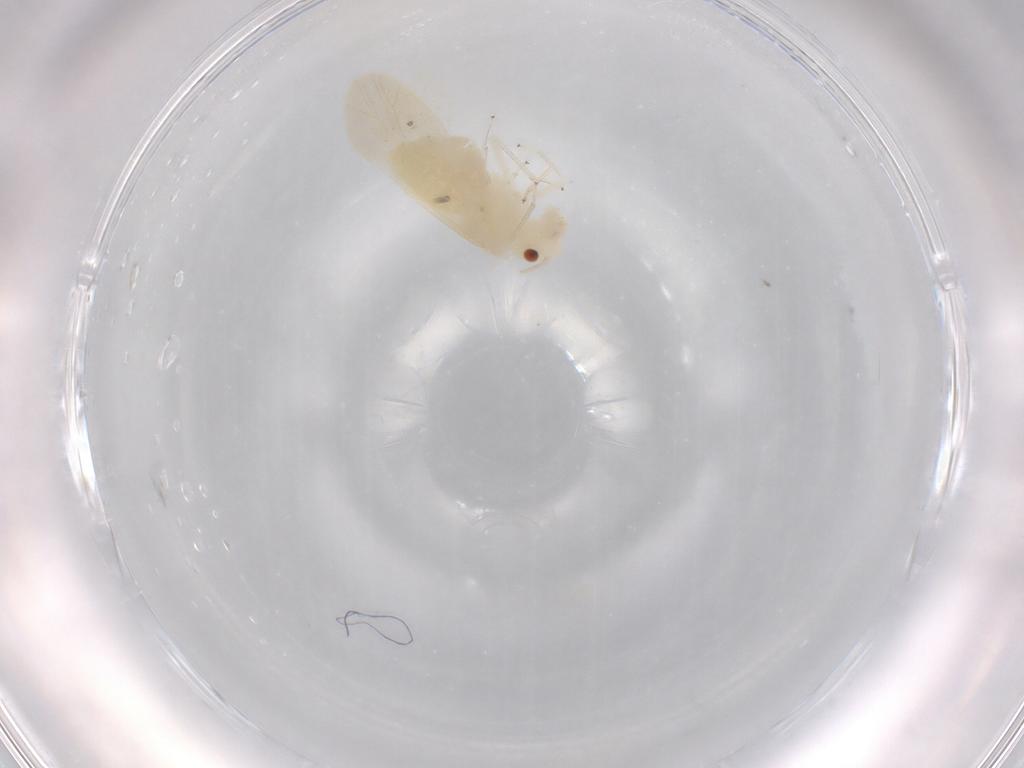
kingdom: Animalia
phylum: Arthropoda
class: Insecta
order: Psocodea
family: Caeciliusidae
